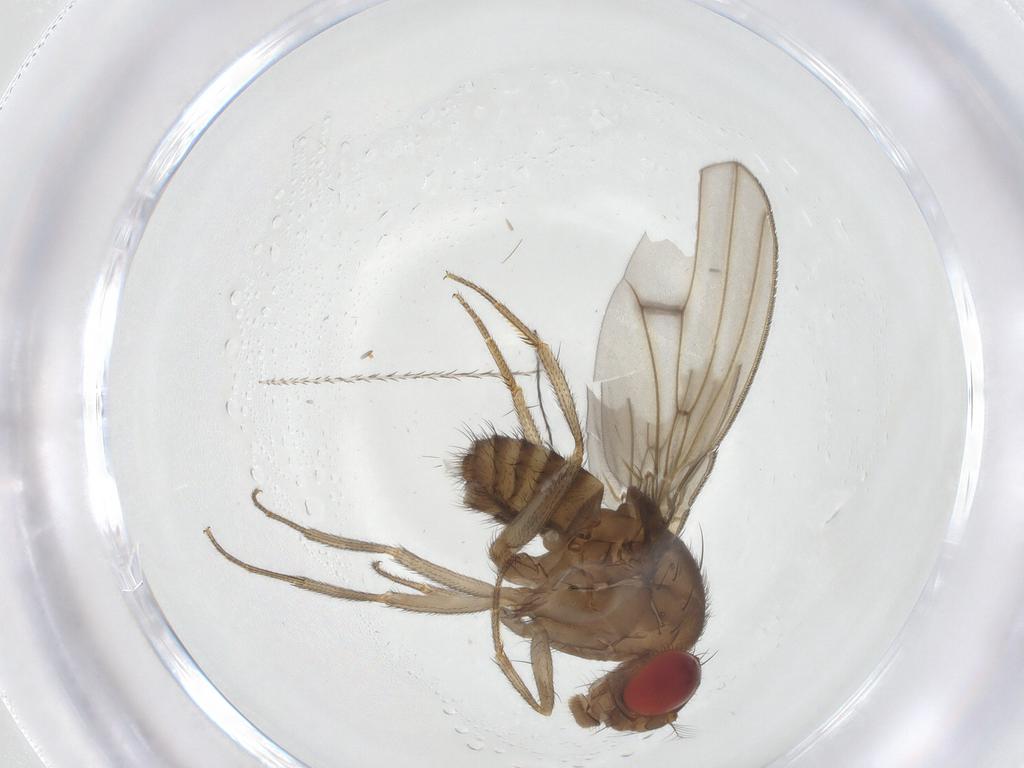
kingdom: Animalia
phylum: Arthropoda
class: Insecta
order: Diptera
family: Drosophilidae
